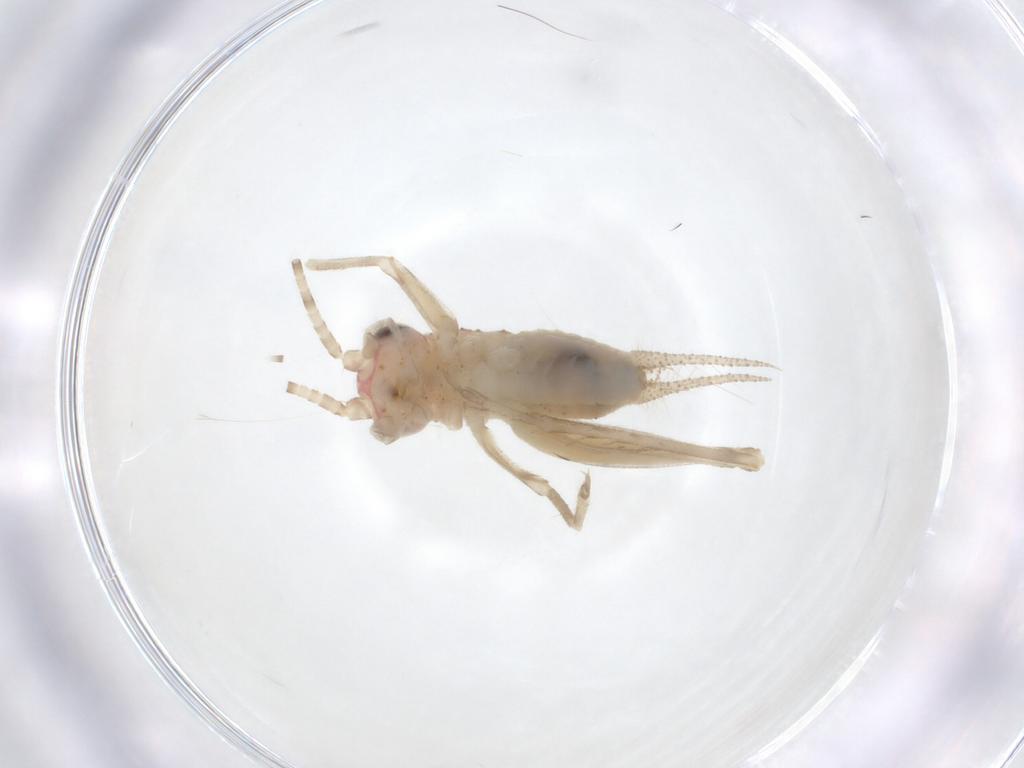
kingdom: Animalia
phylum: Arthropoda
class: Insecta
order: Orthoptera
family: Trigonidiidae
